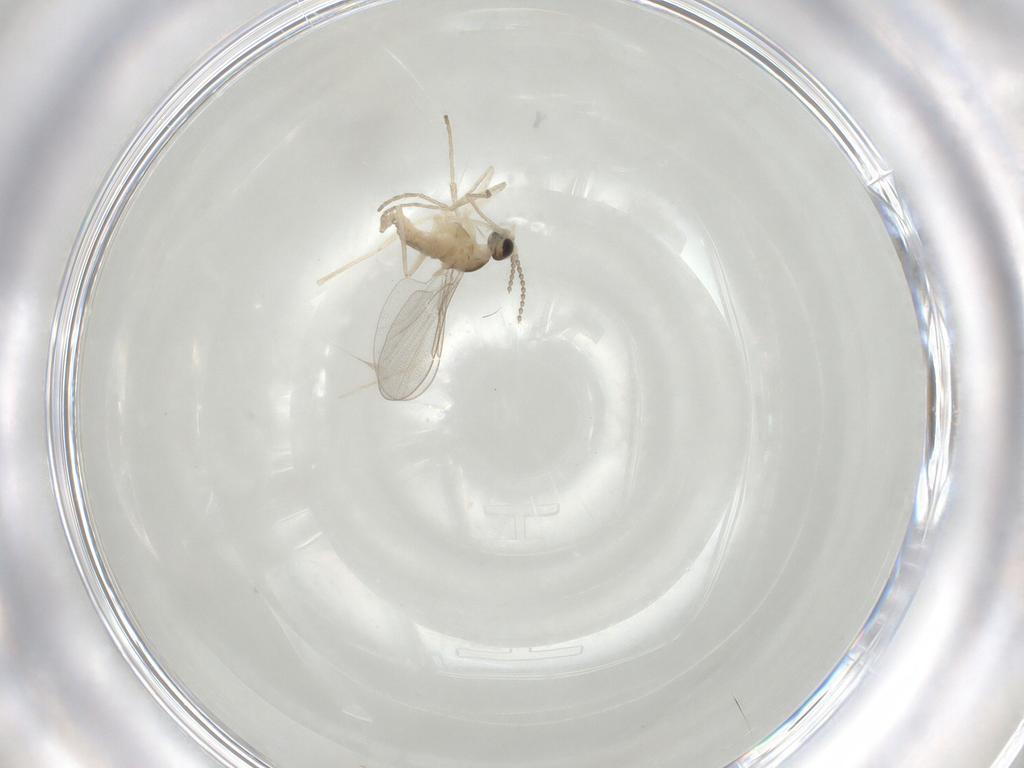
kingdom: Animalia
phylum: Arthropoda
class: Insecta
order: Diptera
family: Cecidomyiidae
